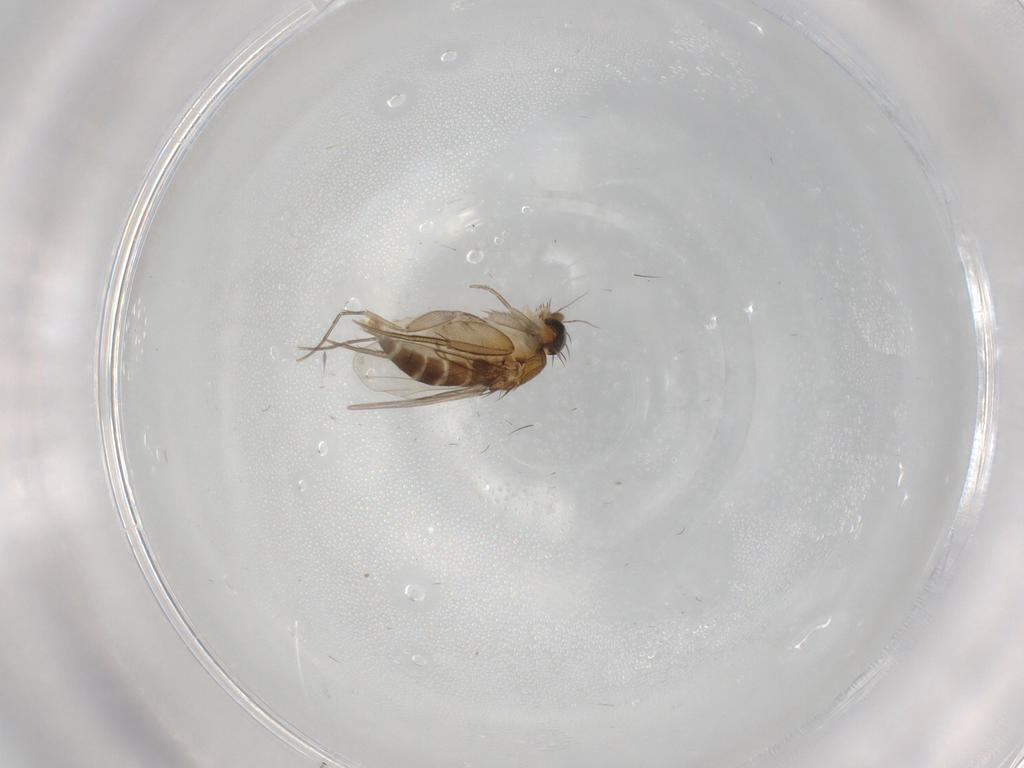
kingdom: Animalia
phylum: Arthropoda
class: Insecta
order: Diptera
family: Phoridae
